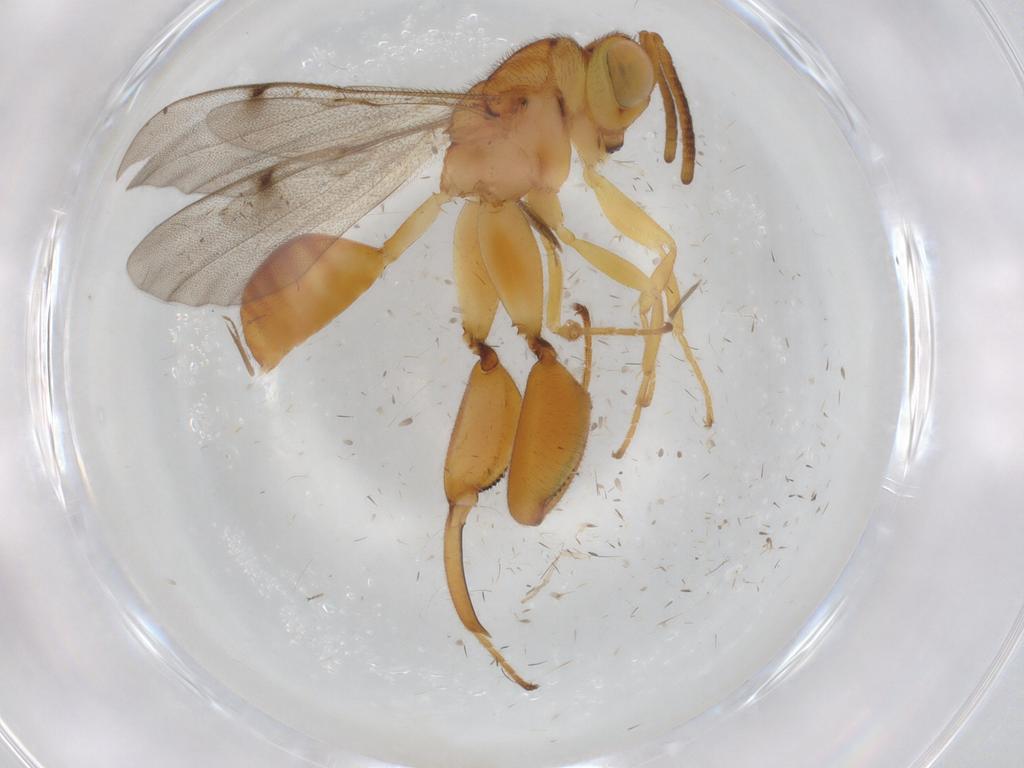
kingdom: Animalia
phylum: Arthropoda
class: Insecta
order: Hymenoptera
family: Chalcididae
